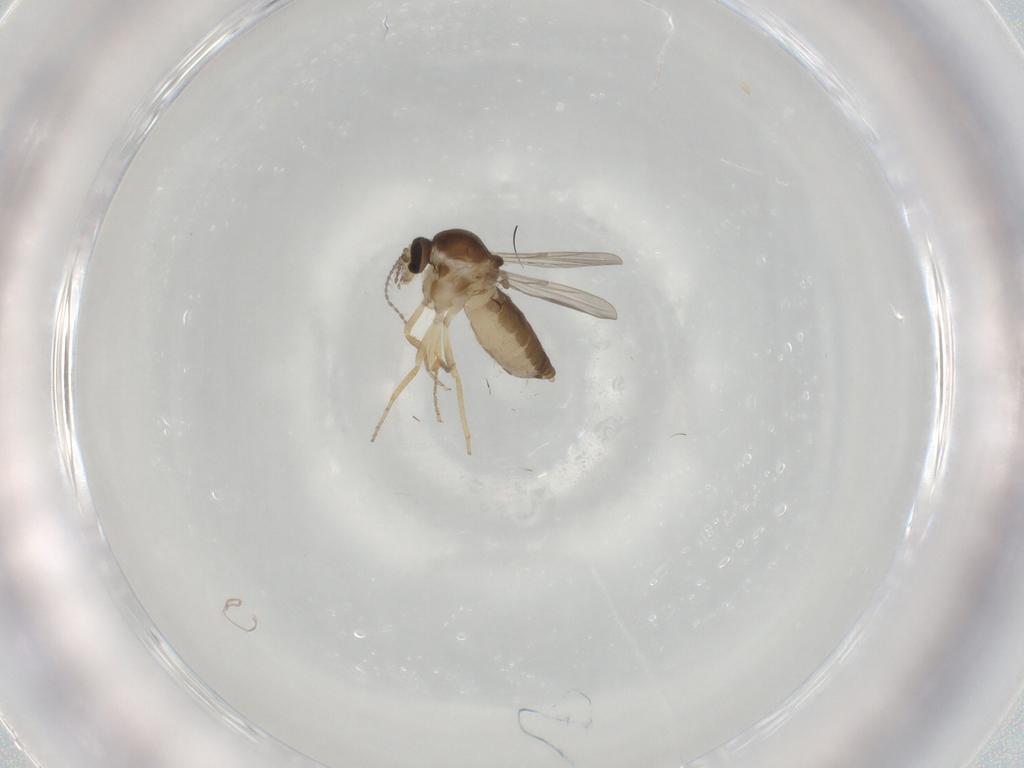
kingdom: Animalia
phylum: Arthropoda
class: Insecta
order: Diptera
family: Ceratopogonidae
